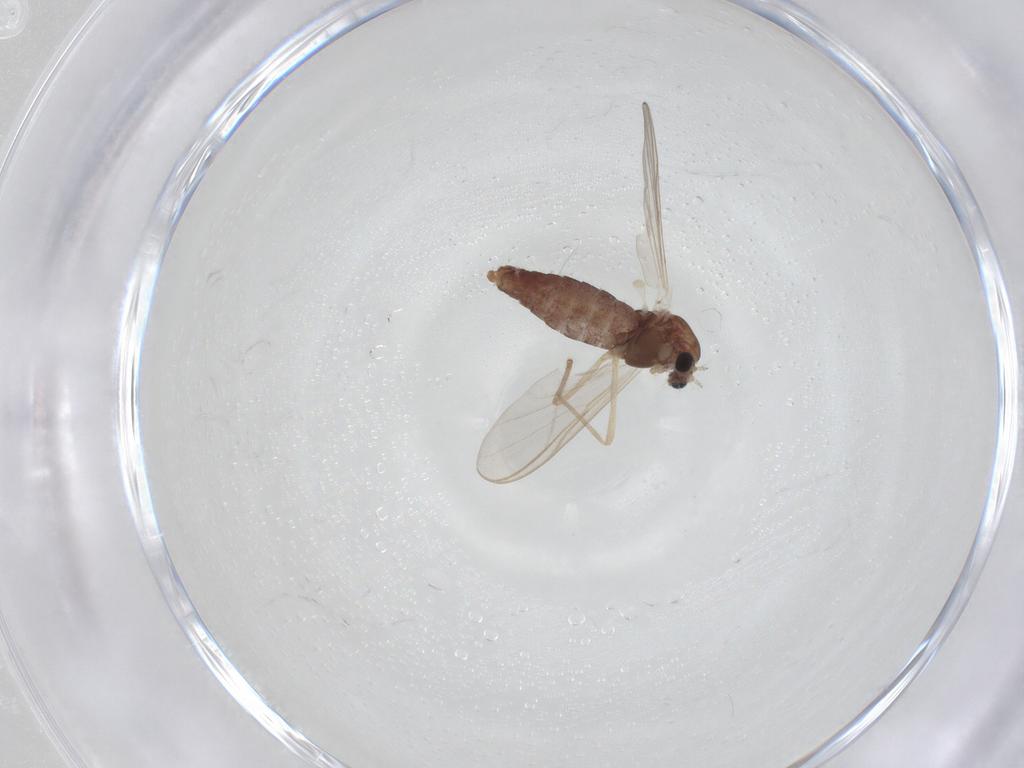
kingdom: Animalia
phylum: Arthropoda
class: Insecta
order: Diptera
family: Chironomidae
